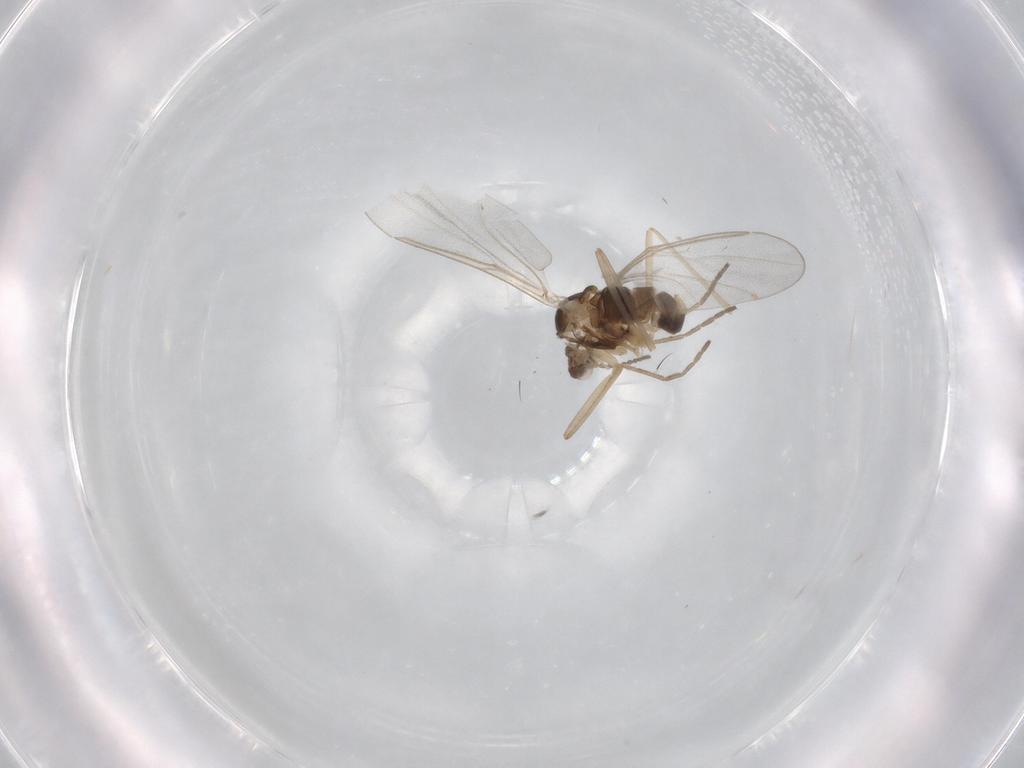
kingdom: Animalia
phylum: Arthropoda
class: Insecta
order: Diptera
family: Cecidomyiidae
